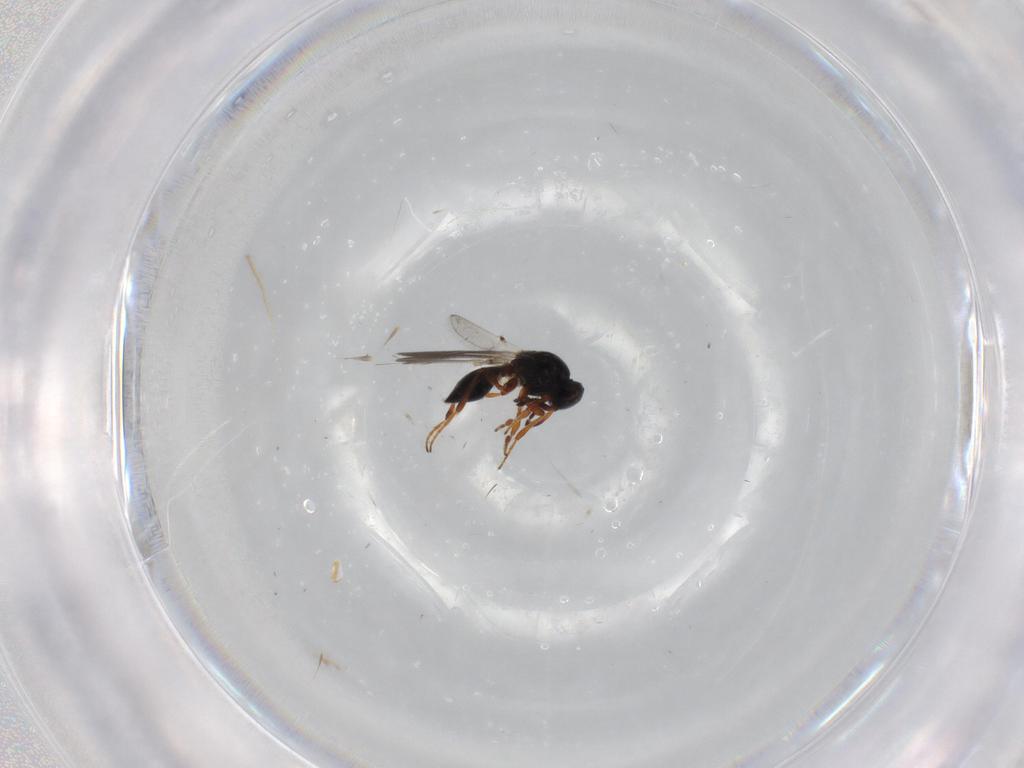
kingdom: Animalia
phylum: Arthropoda
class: Insecta
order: Hymenoptera
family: Platygastridae
